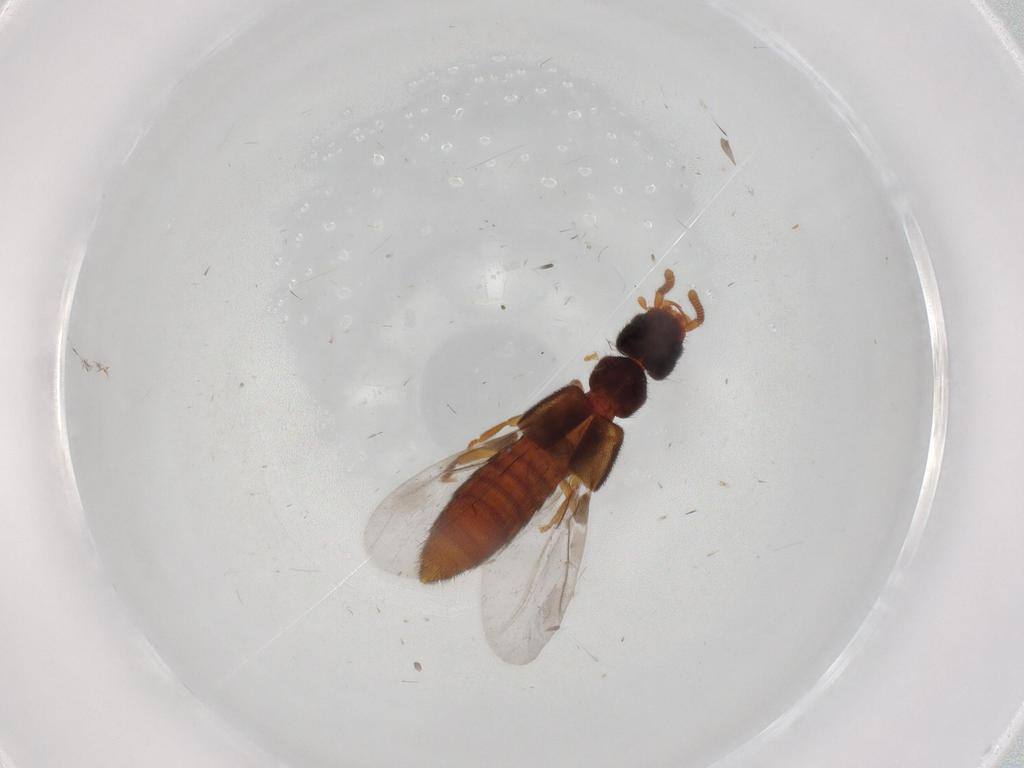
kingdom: Animalia
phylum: Arthropoda
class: Insecta
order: Coleoptera
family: Staphylinidae
